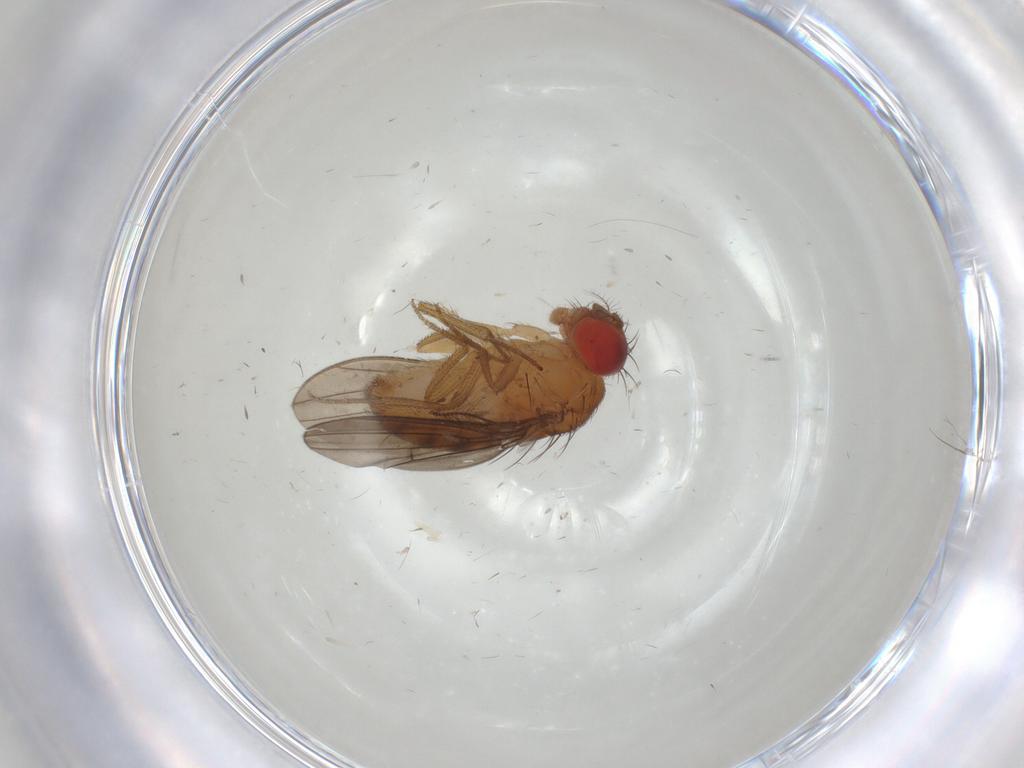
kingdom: Animalia
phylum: Arthropoda
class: Insecta
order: Diptera
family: Drosophilidae
